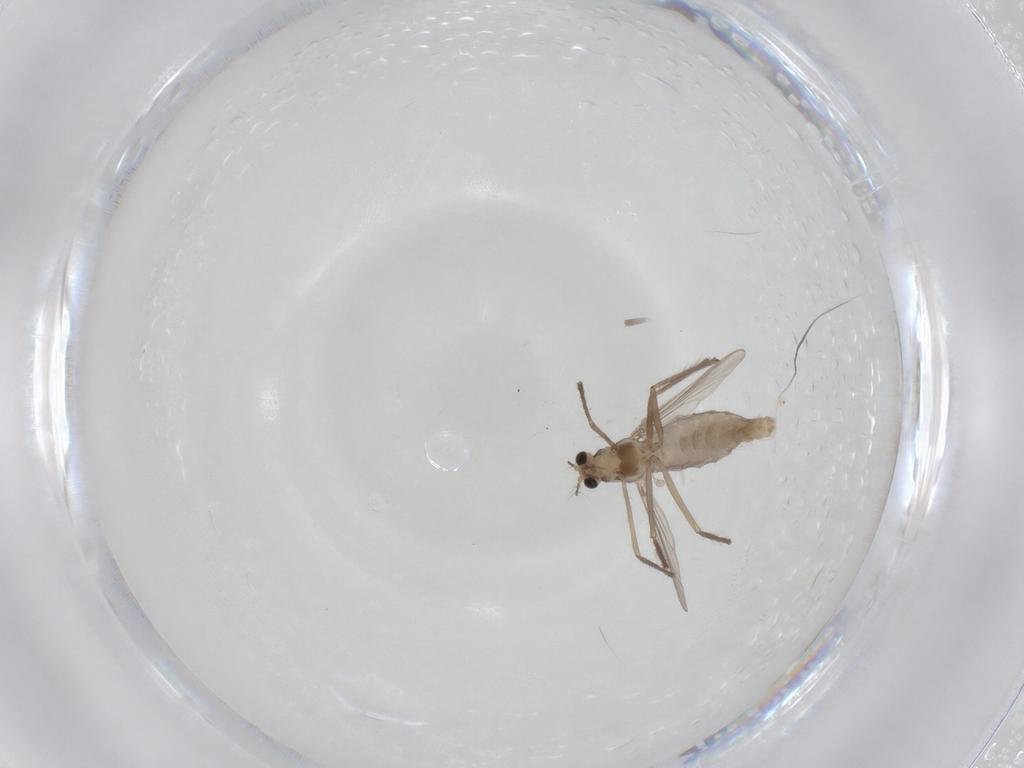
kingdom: Animalia
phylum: Arthropoda
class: Insecta
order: Diptera
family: Chironomidae
